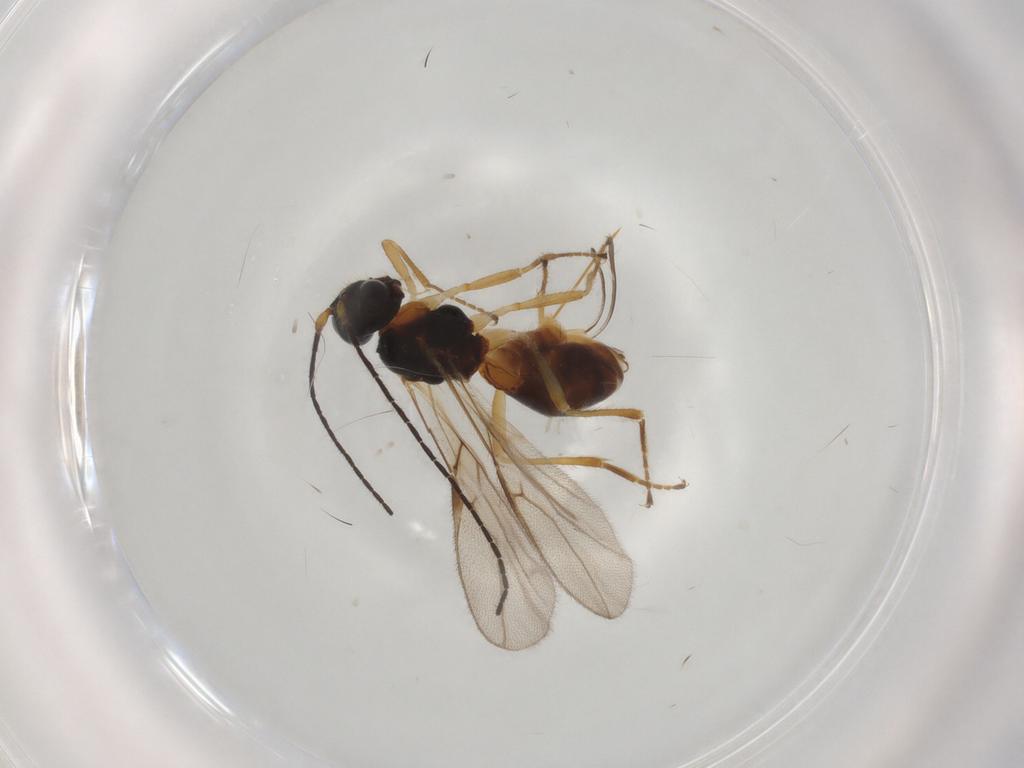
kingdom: Animalia
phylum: Arthropoda
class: Insecta
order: Hymenoptera
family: Braconidae
